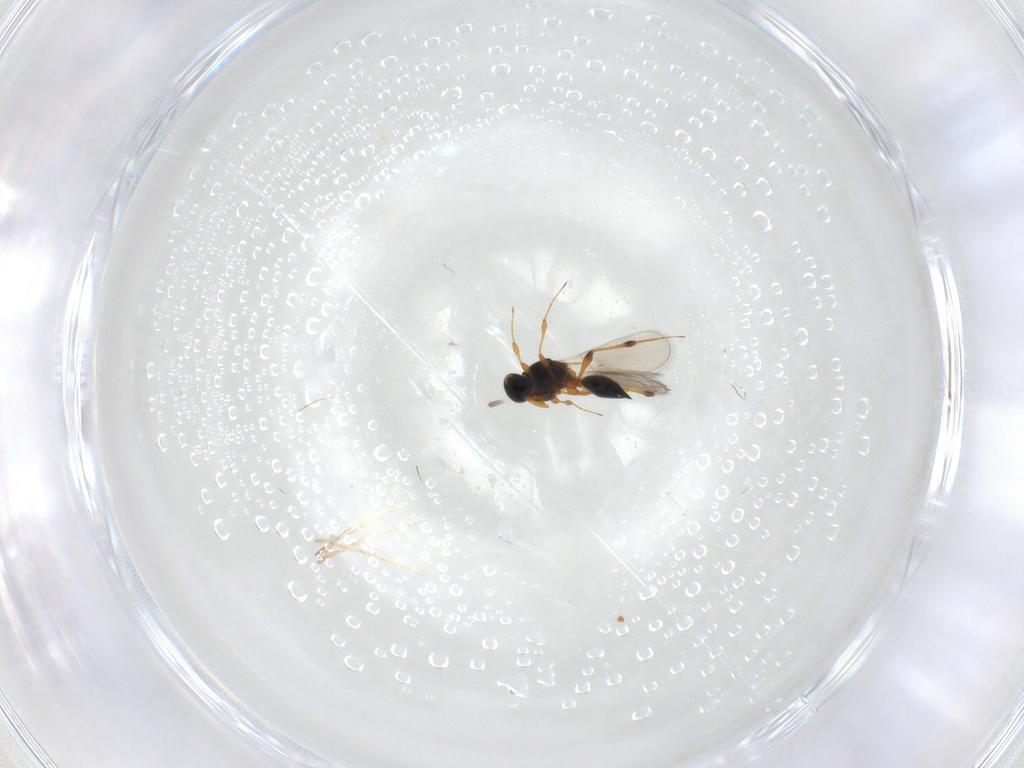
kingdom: Animalia
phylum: Arthropoda
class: Insecta
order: Hymenoptera
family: Platygastridae
